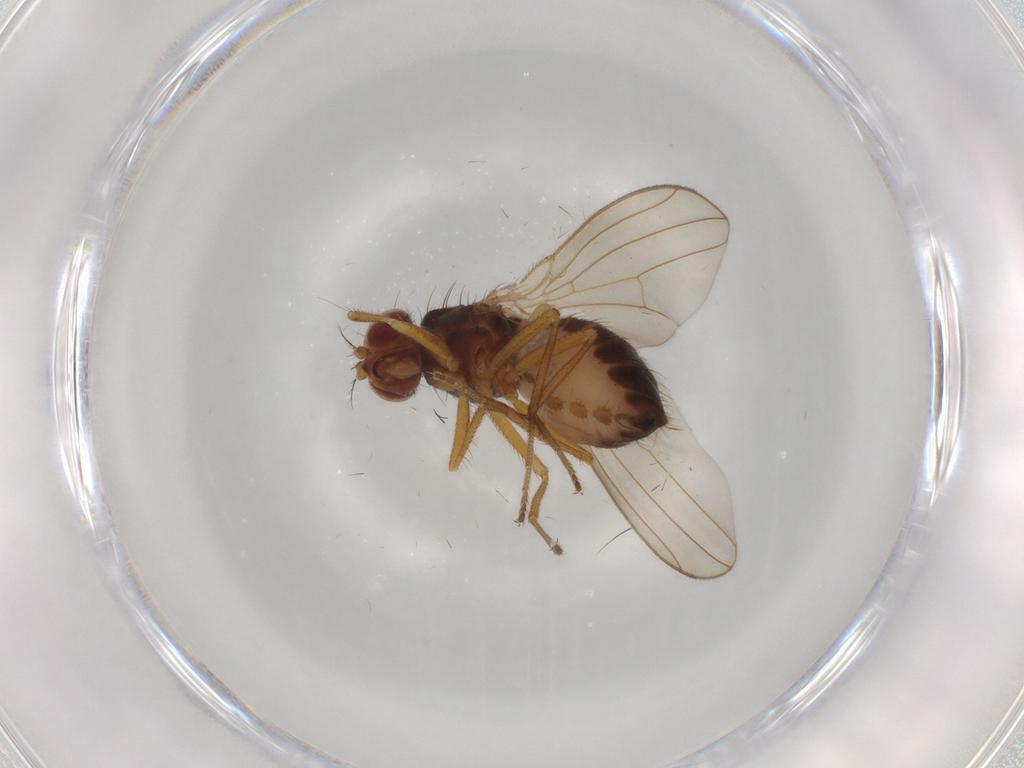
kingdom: Animalia
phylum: Arthropoda
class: Insecta
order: Diptera
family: Drosophilidae
